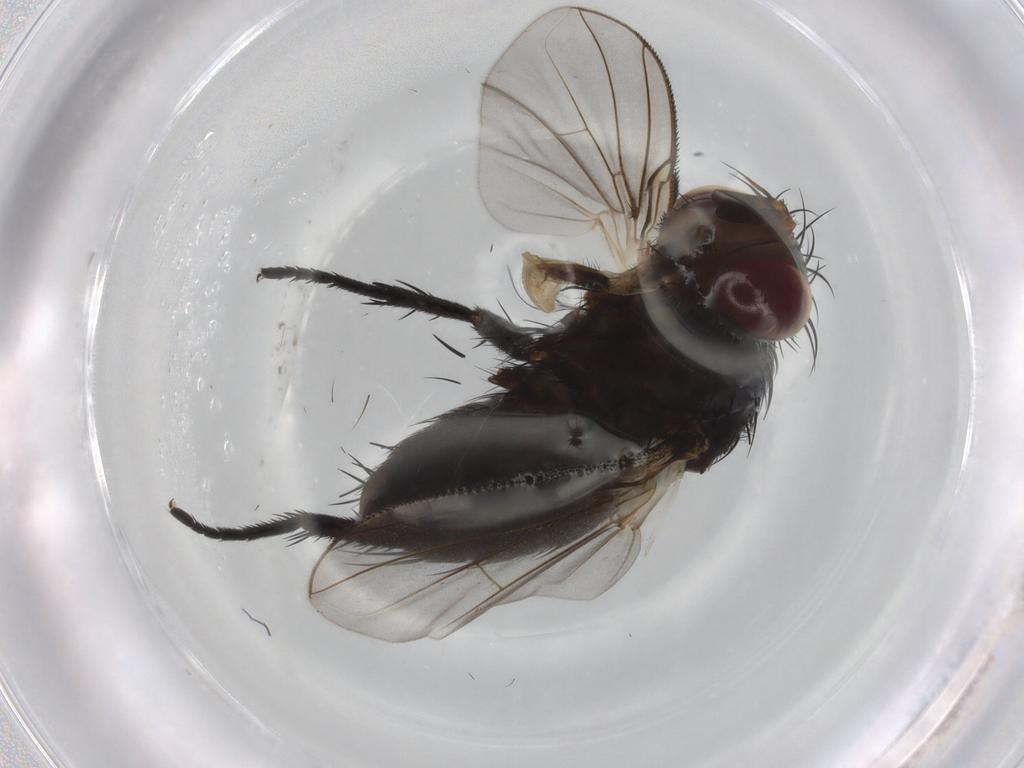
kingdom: Animalia
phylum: Arthropoda
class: Insecta
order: Diptera
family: Tachinidae
